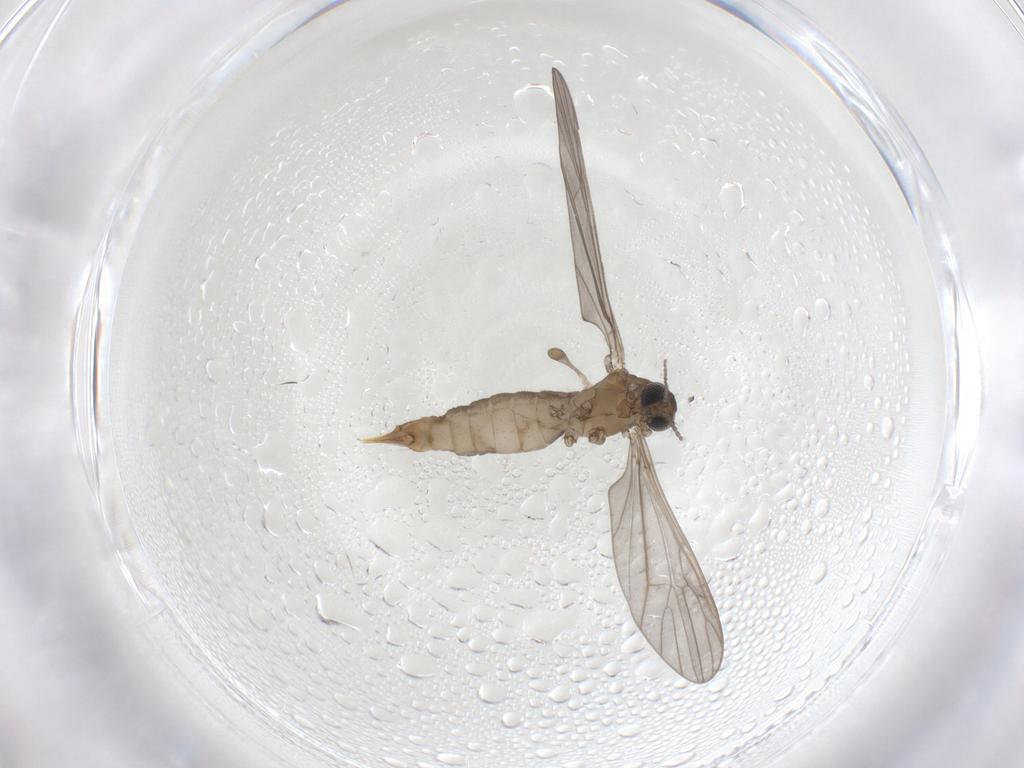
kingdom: Animalia
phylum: Arthropoda
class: Insecta
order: Diptera
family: Limoniidae
